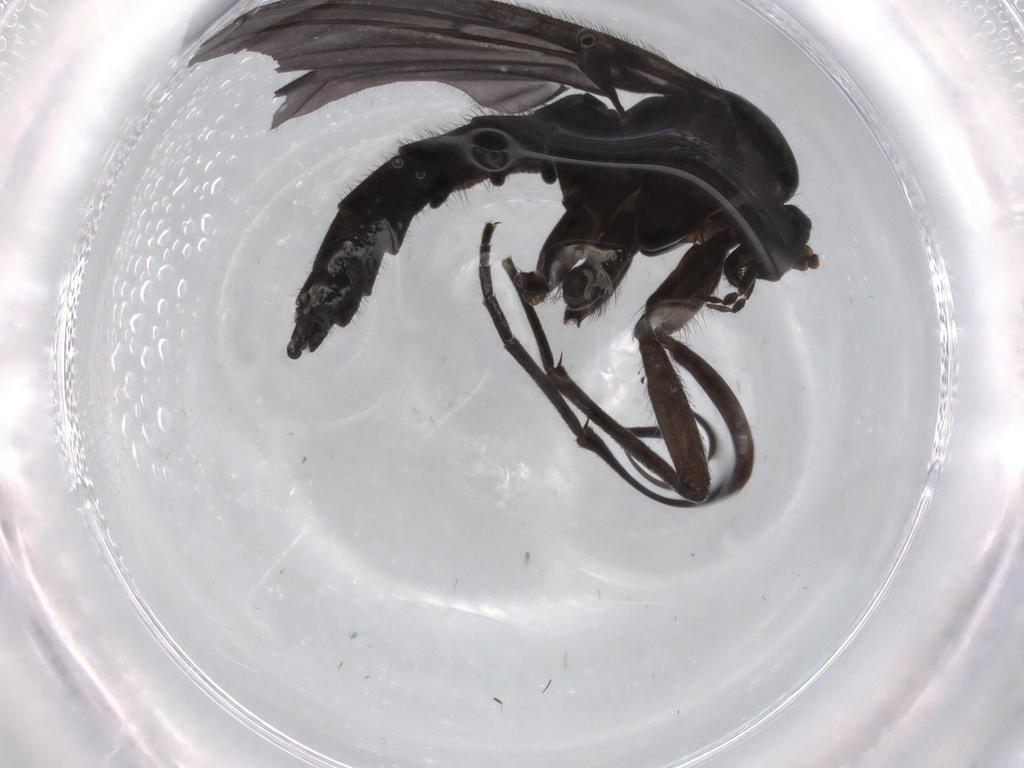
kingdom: Animalia
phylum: Arthropoda
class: Insecta
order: Diptera
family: Sciaridae
